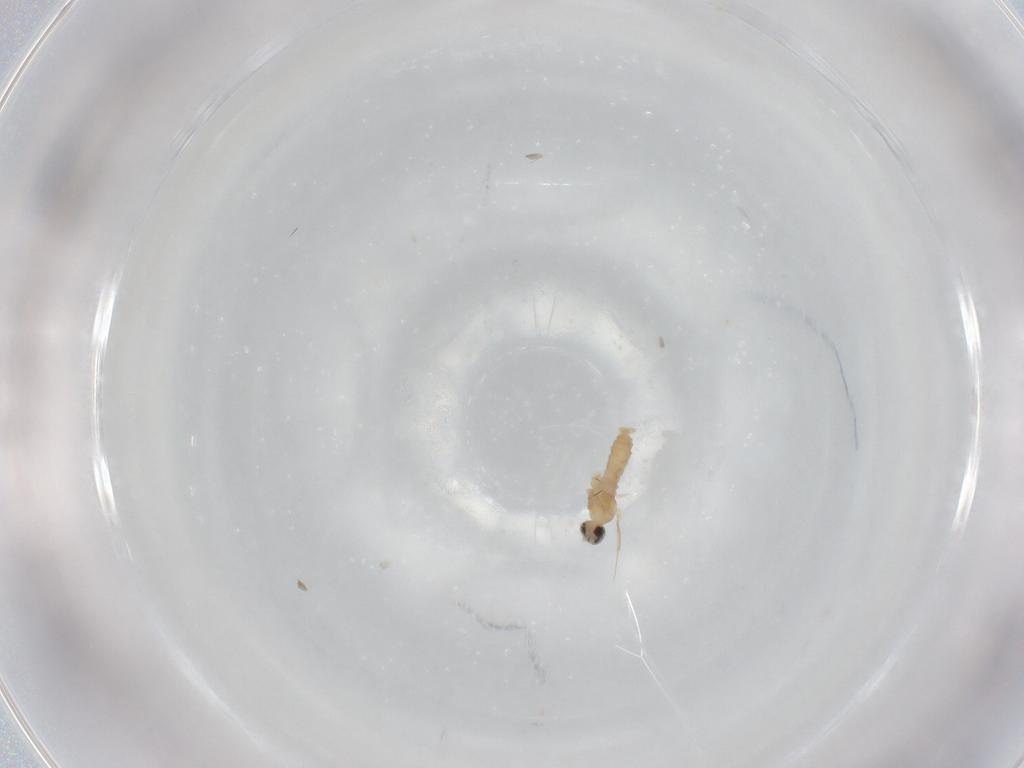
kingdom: Animalia
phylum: Arthropoda
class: Insecta
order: Diptera
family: Cecidomyiidae
